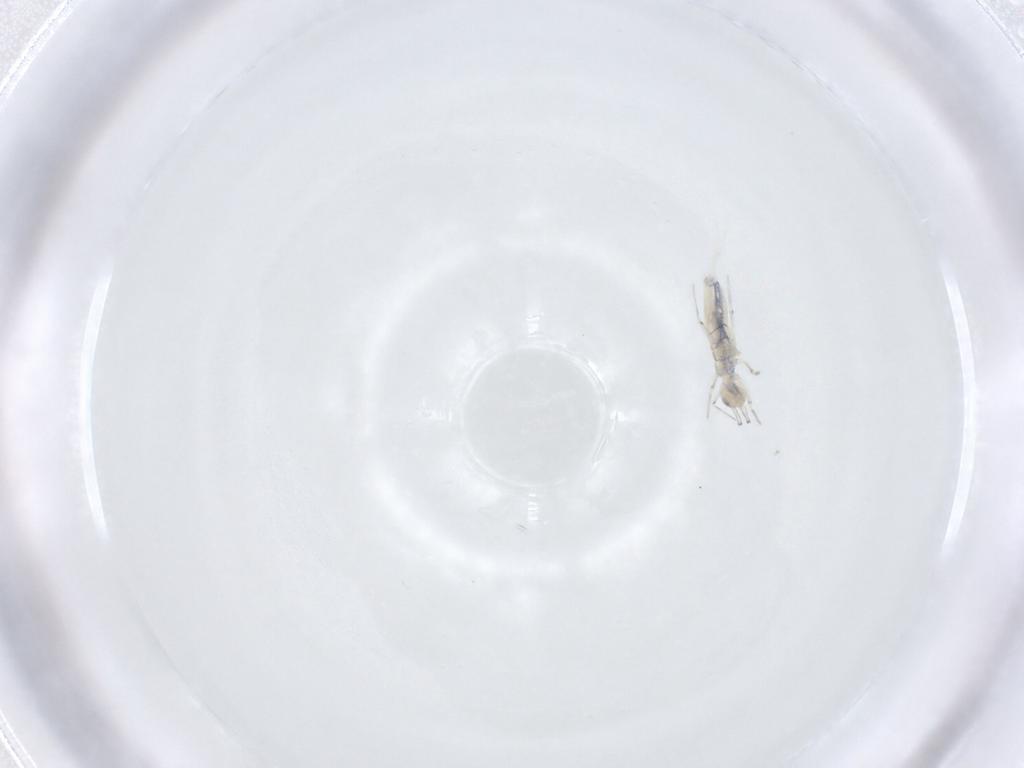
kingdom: Animalia
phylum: Arthropoda
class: Collembola
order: Entomobryomorpha
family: Paronellidae
